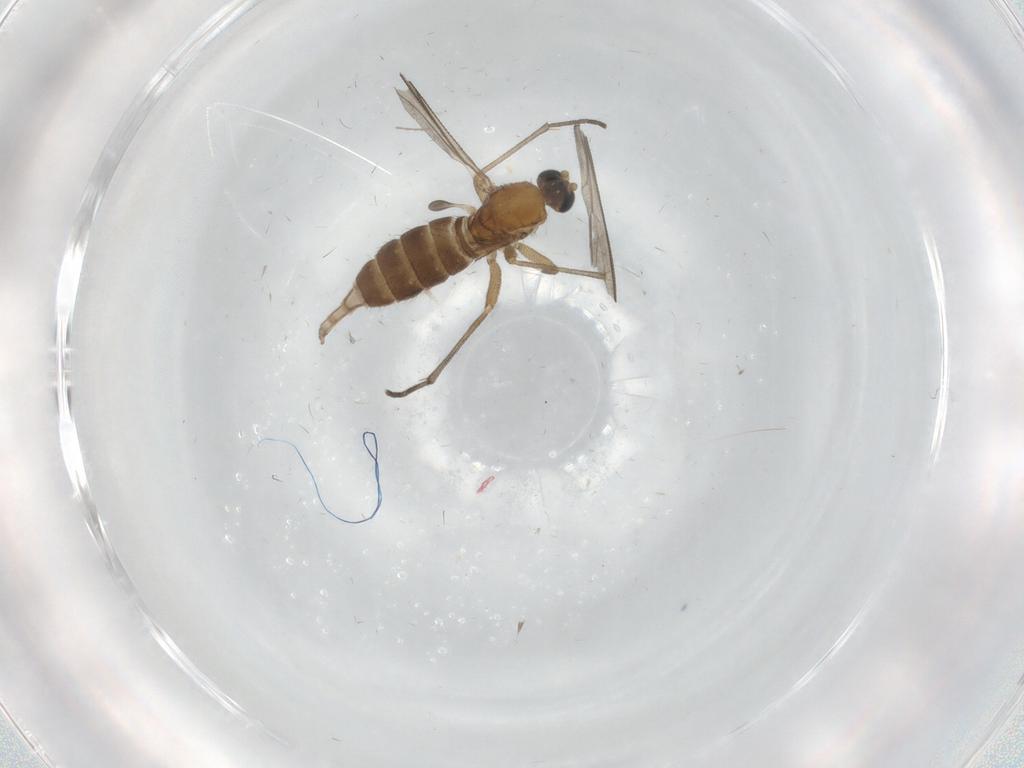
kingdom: Animalia
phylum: Arthropoda
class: Insecta
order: Diptera
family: Chironomidae
